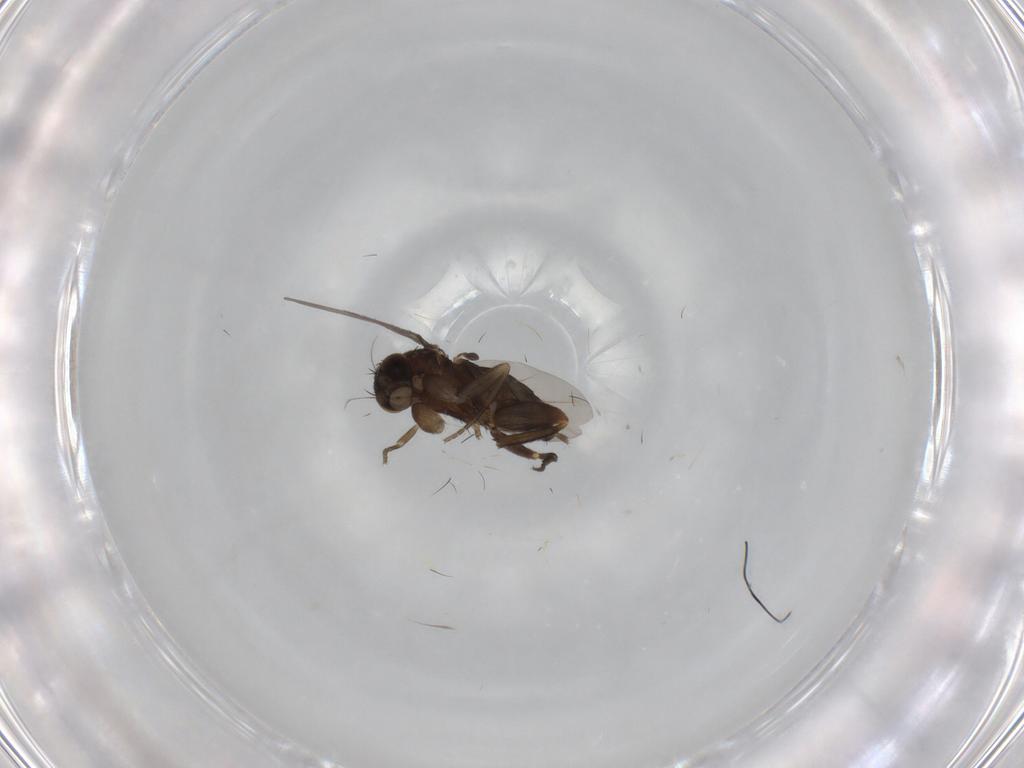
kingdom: Animalia
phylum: Arthropoda
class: Insecta
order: Diptera
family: Phoridae
